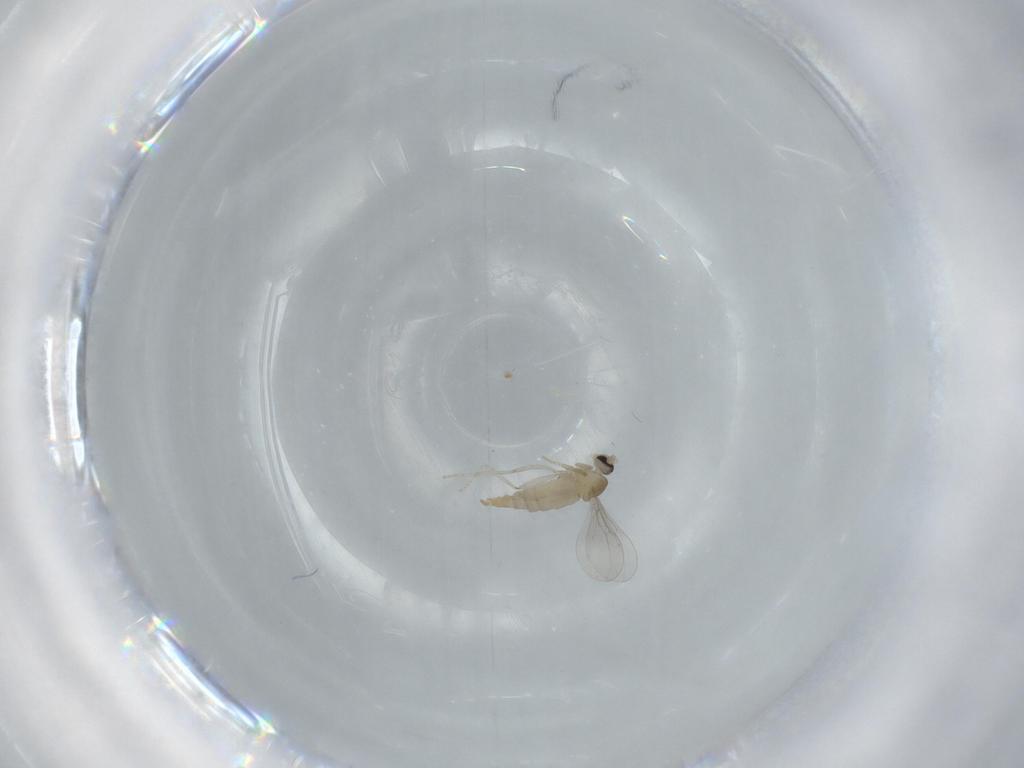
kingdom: Animalia
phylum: Arthropoda
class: Insecta
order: Diptera
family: Cecidomyiidae
